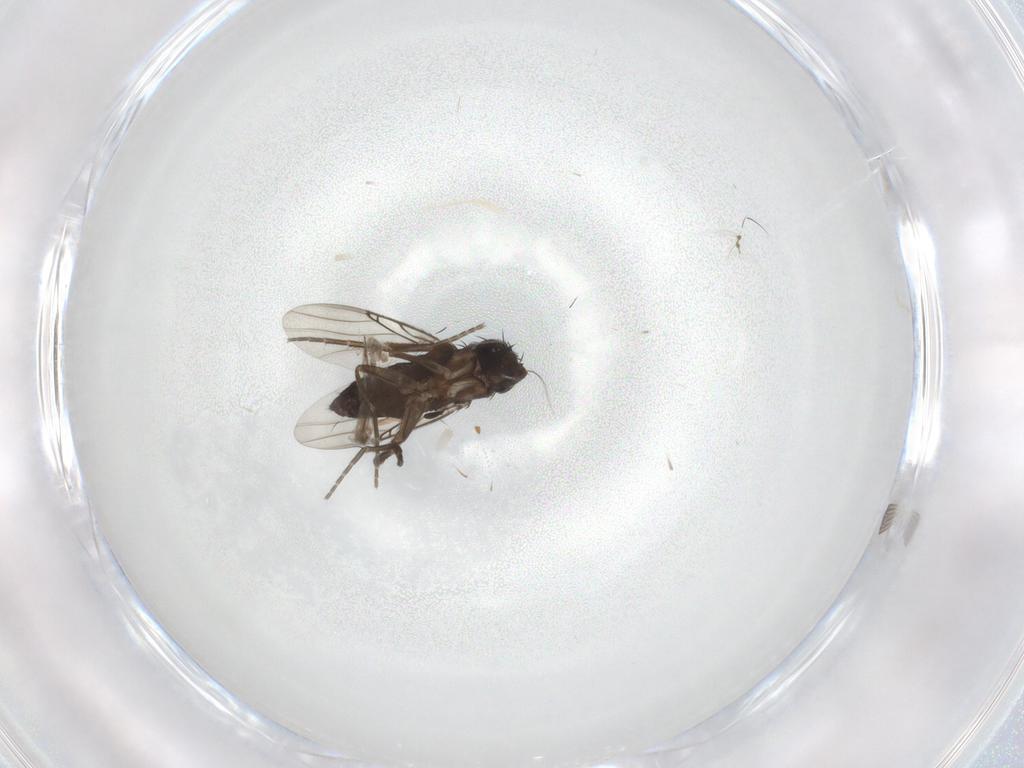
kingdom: Animalia
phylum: Arthropoda
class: Insecta
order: Diptera
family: Phoridae
